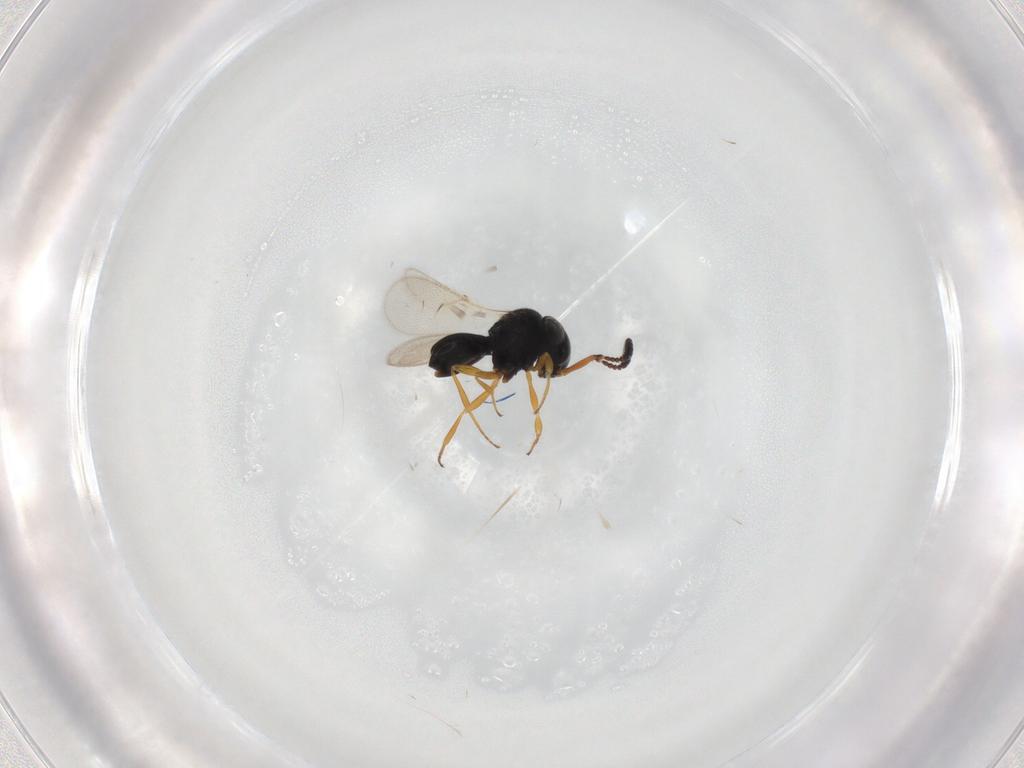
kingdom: Animalia
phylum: Arthropoda
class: Insecta
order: Hymenoptera
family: Scelionidae
